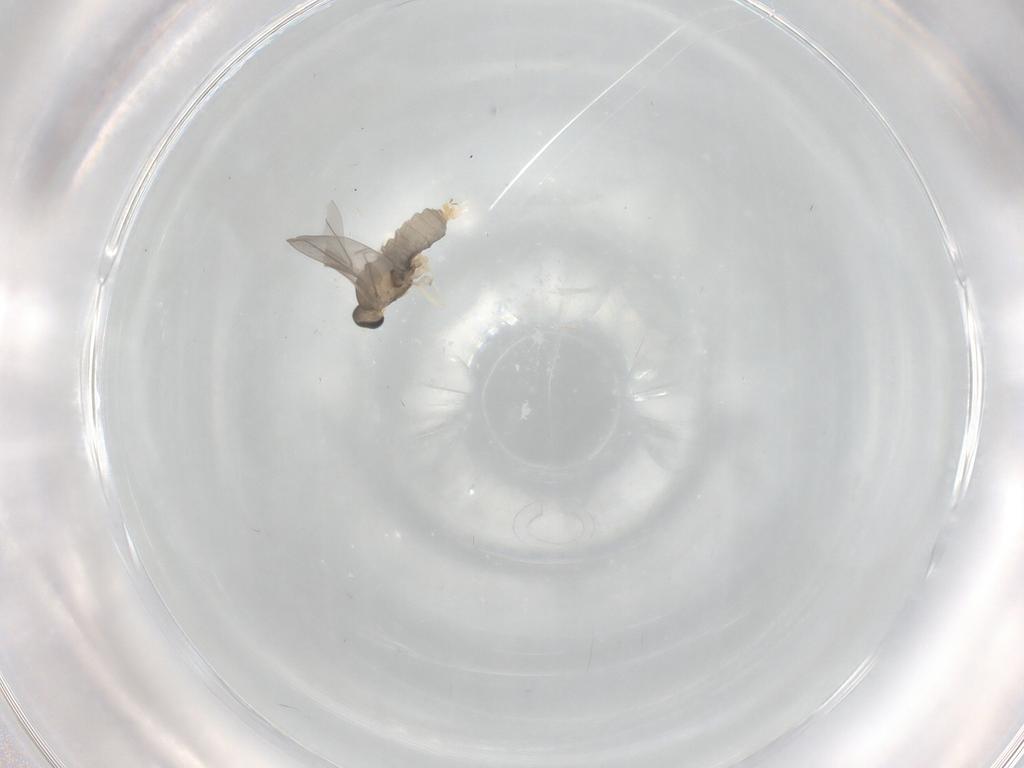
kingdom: Animalia
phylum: Arthropoda
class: Insecta
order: Diptera
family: Cecidomyiidae
